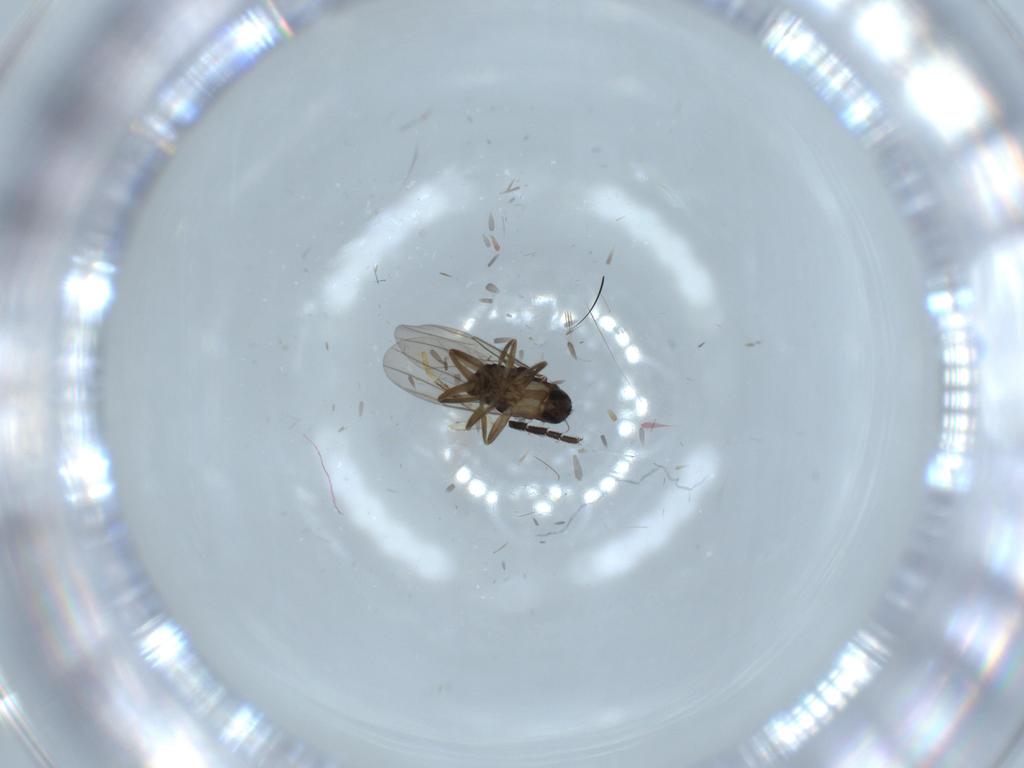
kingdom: Animalia
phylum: Arthropoda
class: Insecta
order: Diptera
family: Phoridae
